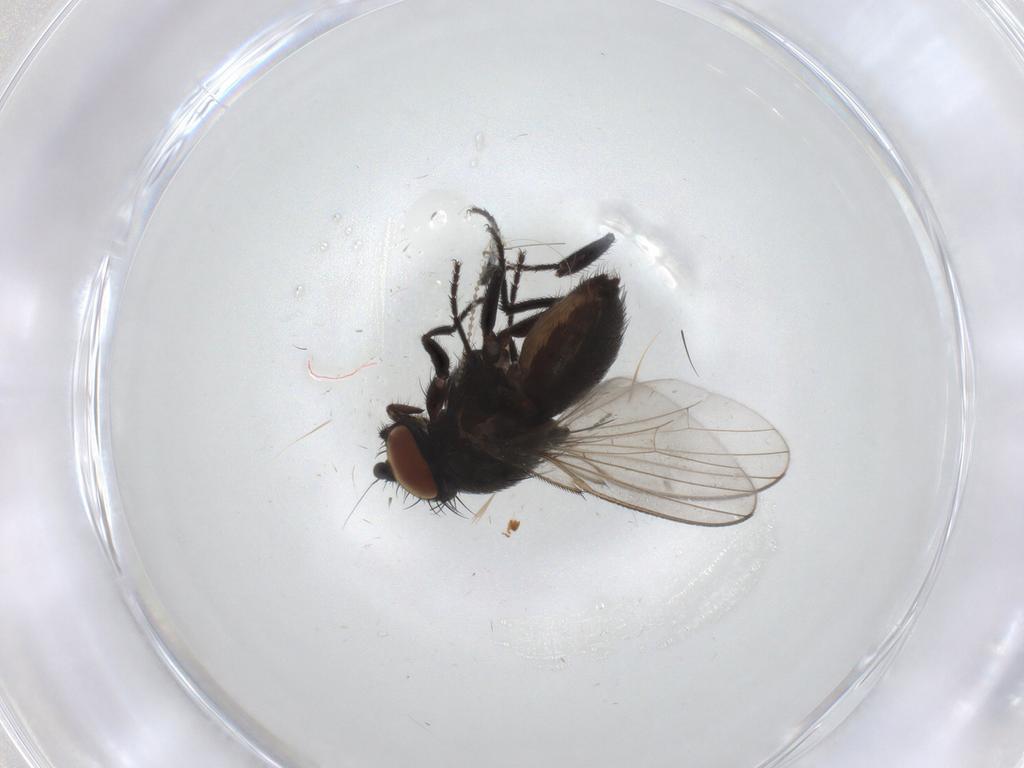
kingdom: Animalia
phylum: Arthropoda
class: Insecta
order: Diptera
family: Milichiidae
